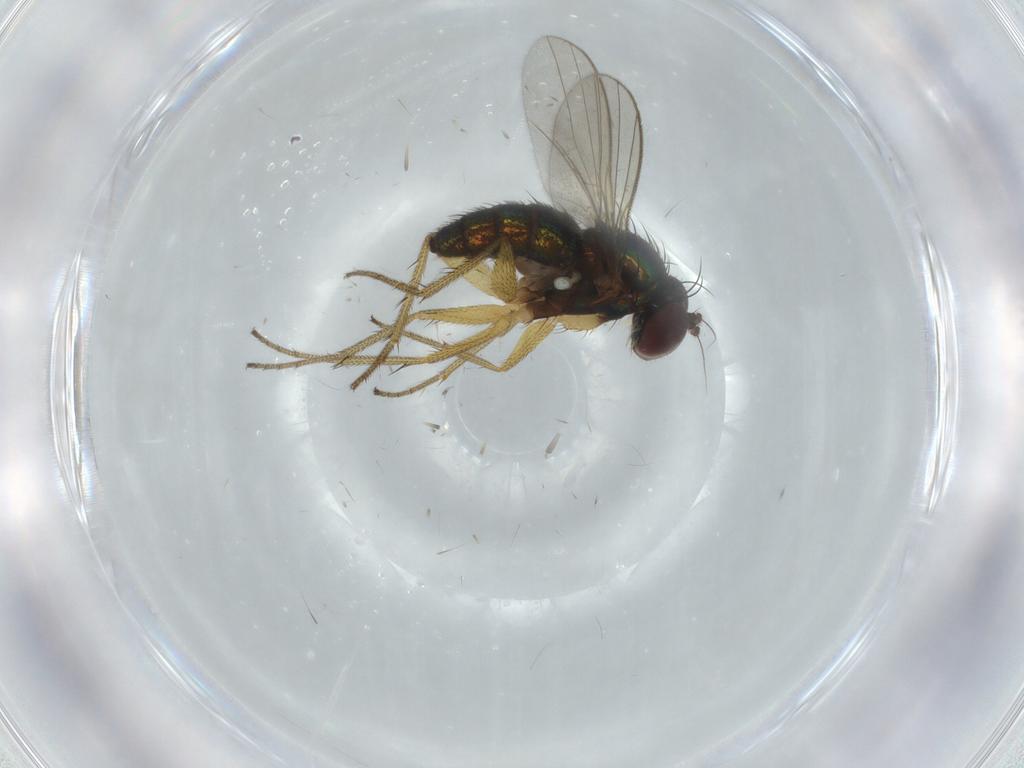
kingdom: Animalia
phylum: Arthropoda
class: Insecta
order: Diptera
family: Dolichopodidae
